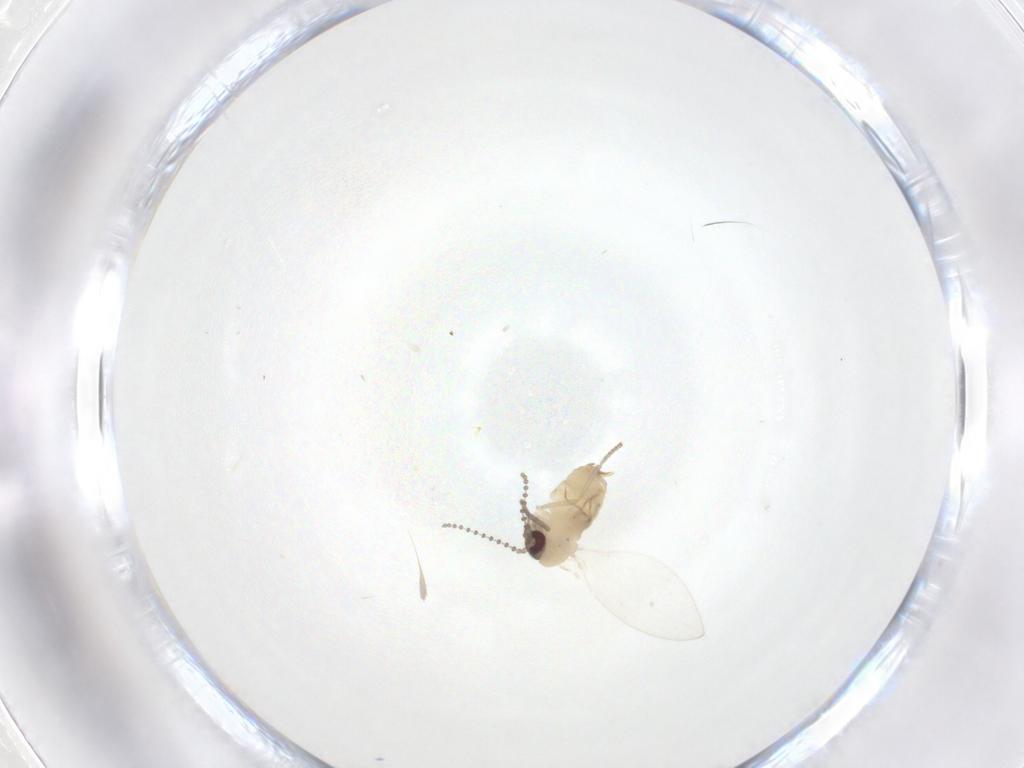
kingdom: Animalia
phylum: Arthropoda
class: Insecta
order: Diptera
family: Psychodidae
